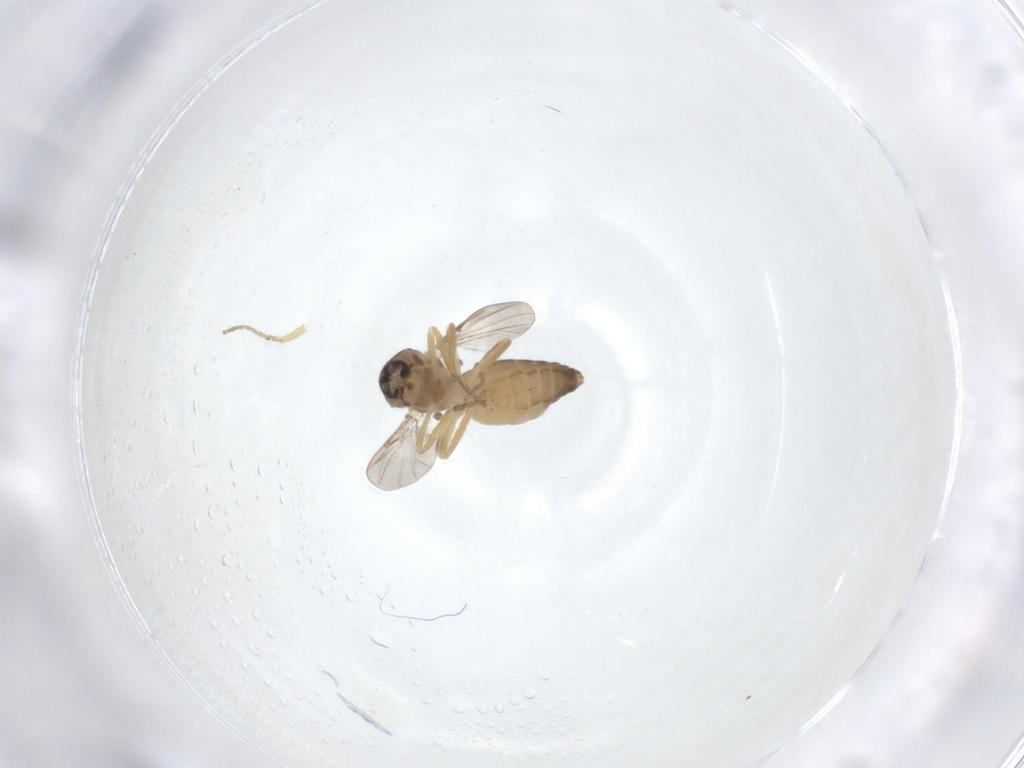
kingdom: Animalia
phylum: Arthropoda
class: Insecta
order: Diptera
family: Ceratopogonidae
